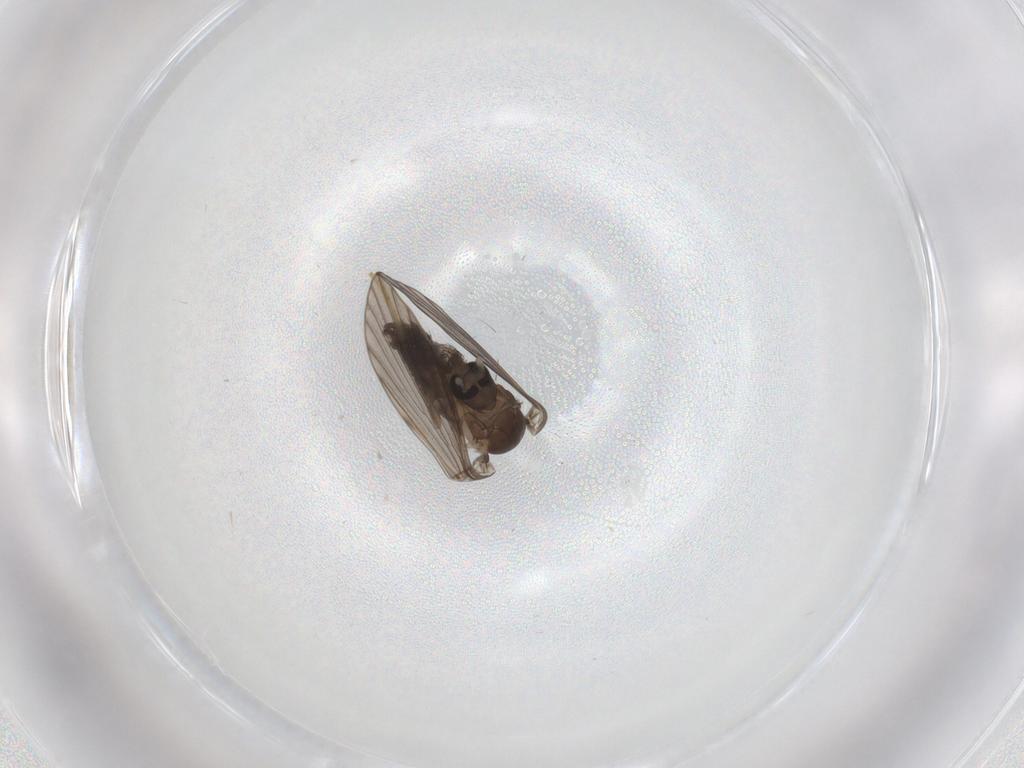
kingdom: Animalia
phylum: Arthropoda
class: Insecta
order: Diptera
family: Psychodidae
